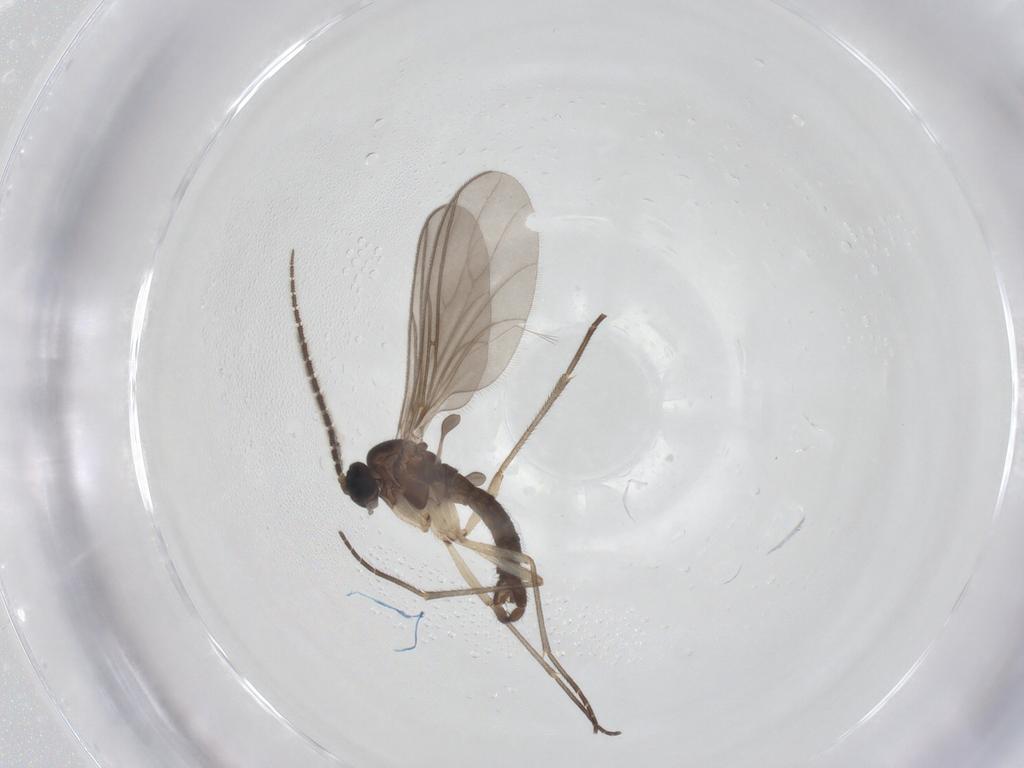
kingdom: Animalia
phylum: Arthropoda
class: Insecta
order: Diptera
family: Sciaridae
